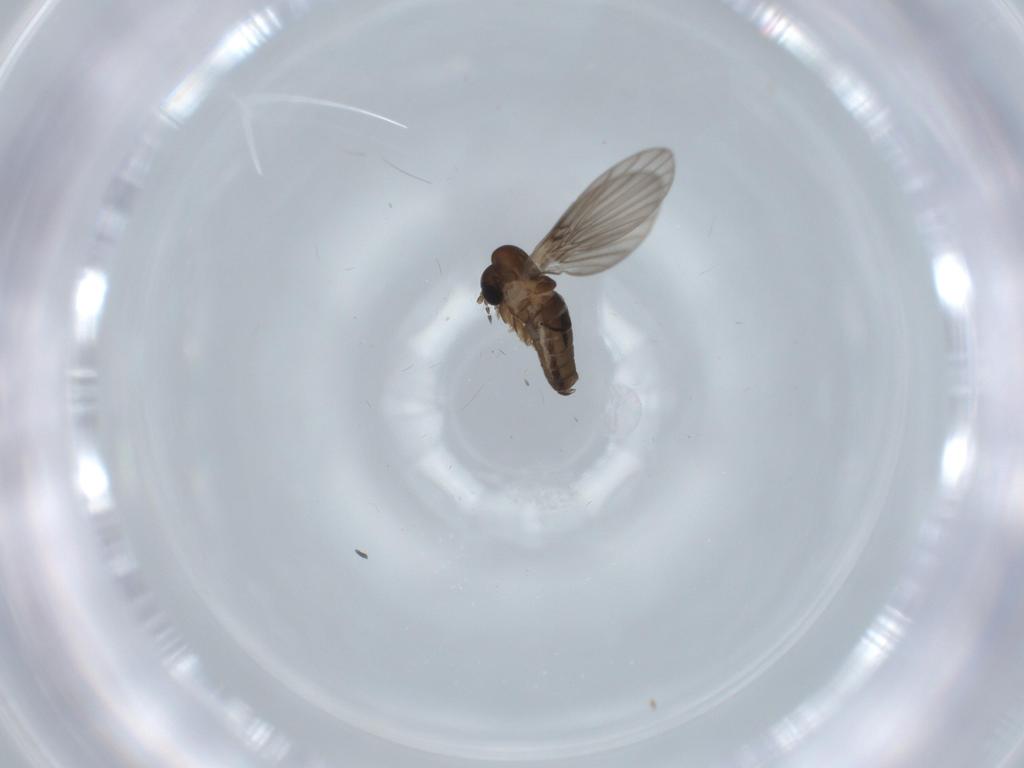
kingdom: Animalia
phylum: Arthropoda
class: Insecta
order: Diptera
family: Psychodidae
